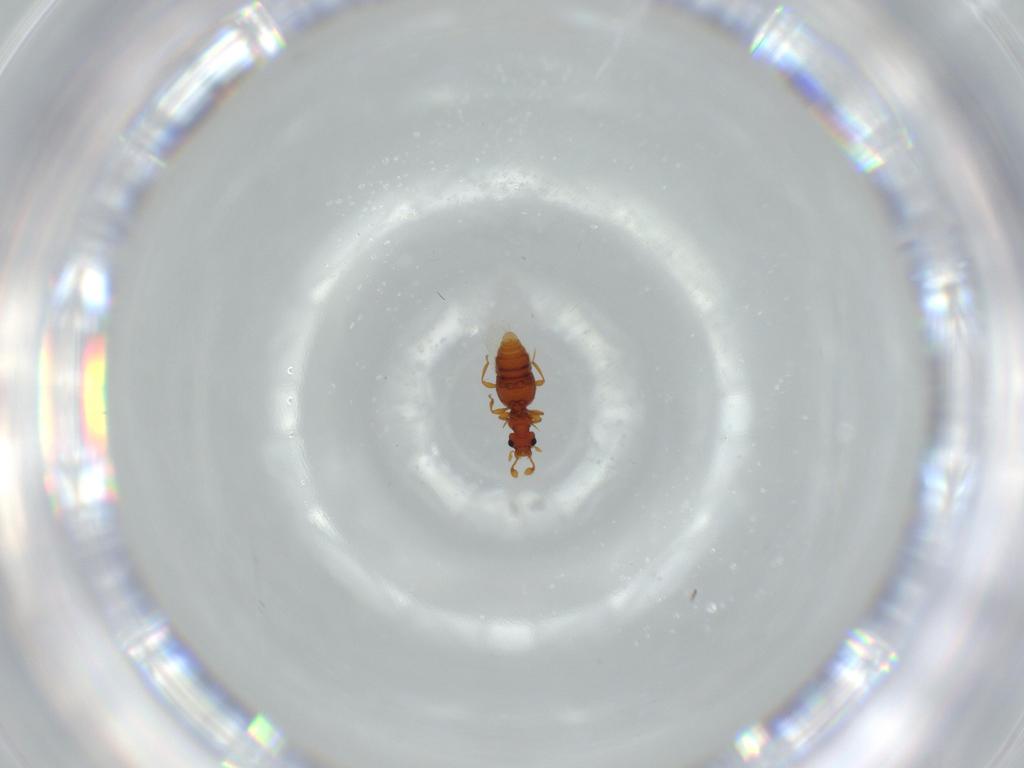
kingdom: Animalia
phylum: Arthropoda
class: Insecta
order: Coleoptera
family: Staphylinidae
